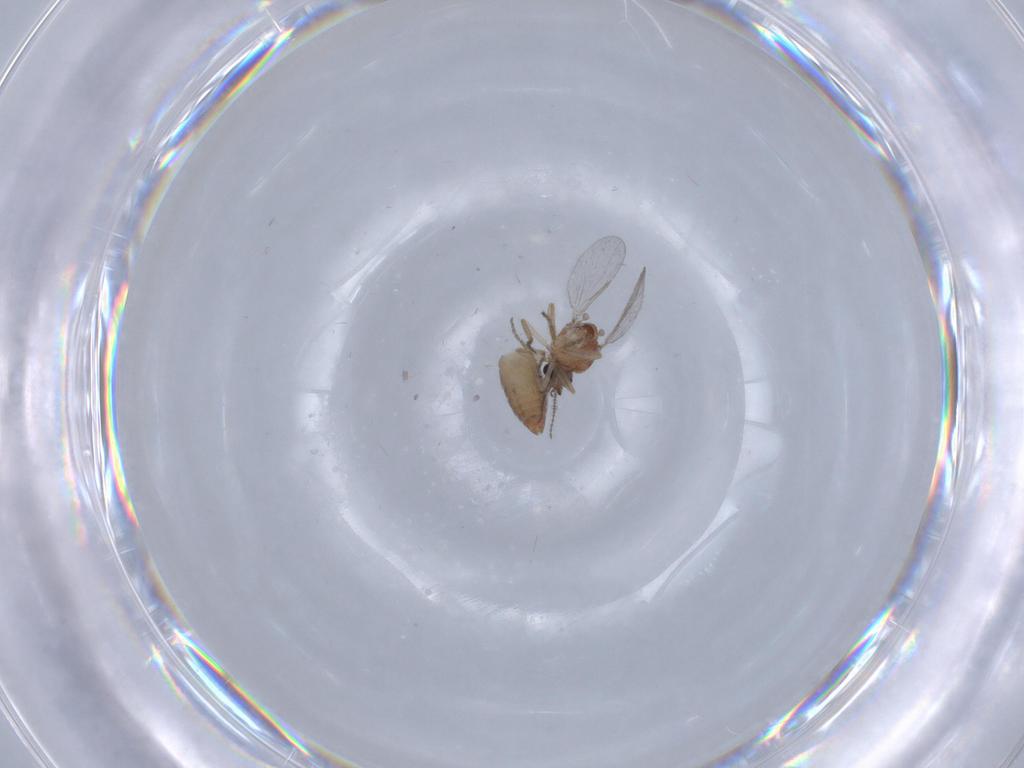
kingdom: Animalia
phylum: Arthropoda
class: Insecta
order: Diptera
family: Ceratopogonidae
